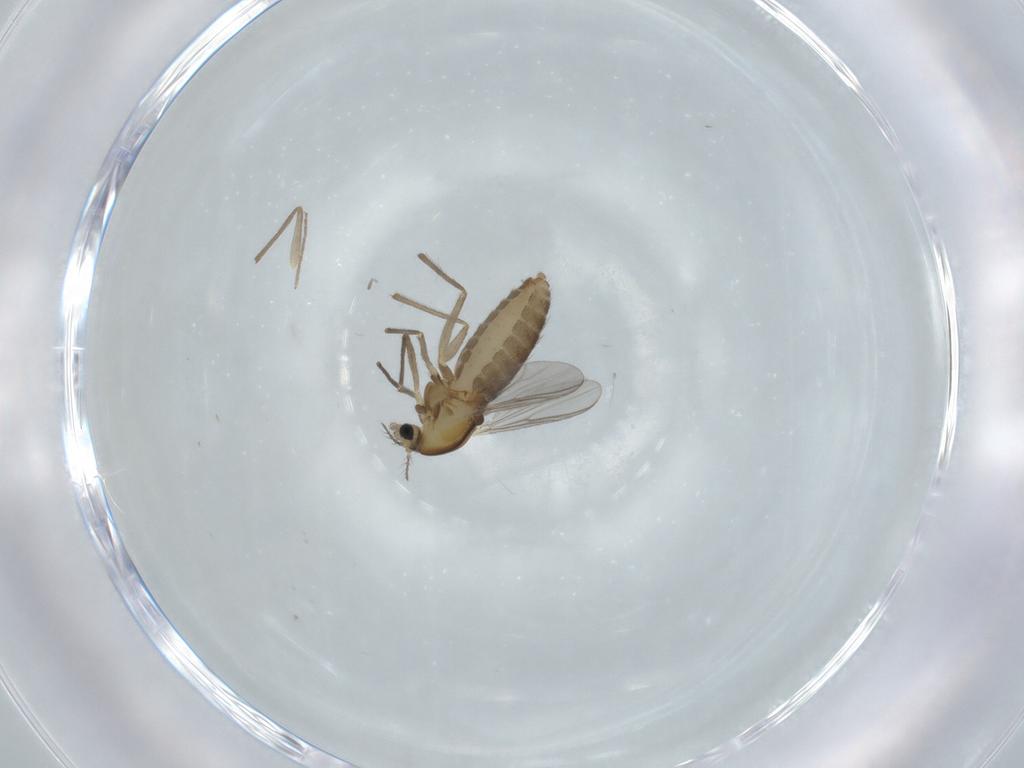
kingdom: Animalia
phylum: Arthropoda
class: Insecta
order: Diptera
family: Chironomidae
